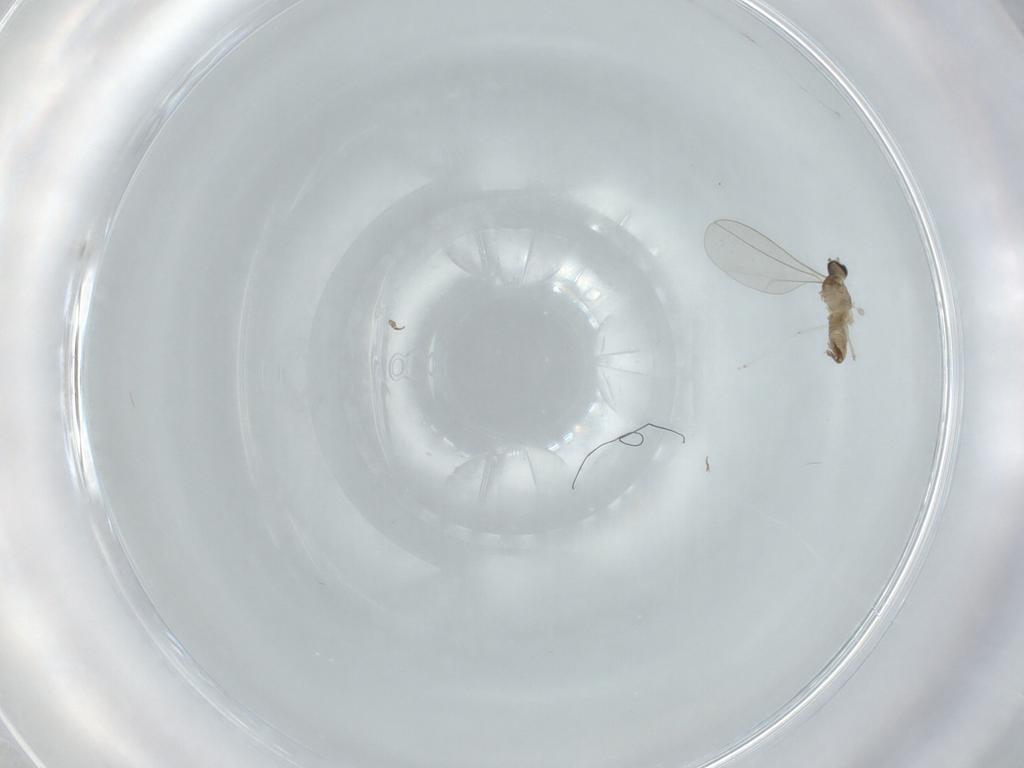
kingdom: Animalia
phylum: Arthropoda
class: Insecta
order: Diptera
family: Cecidomyiidae
